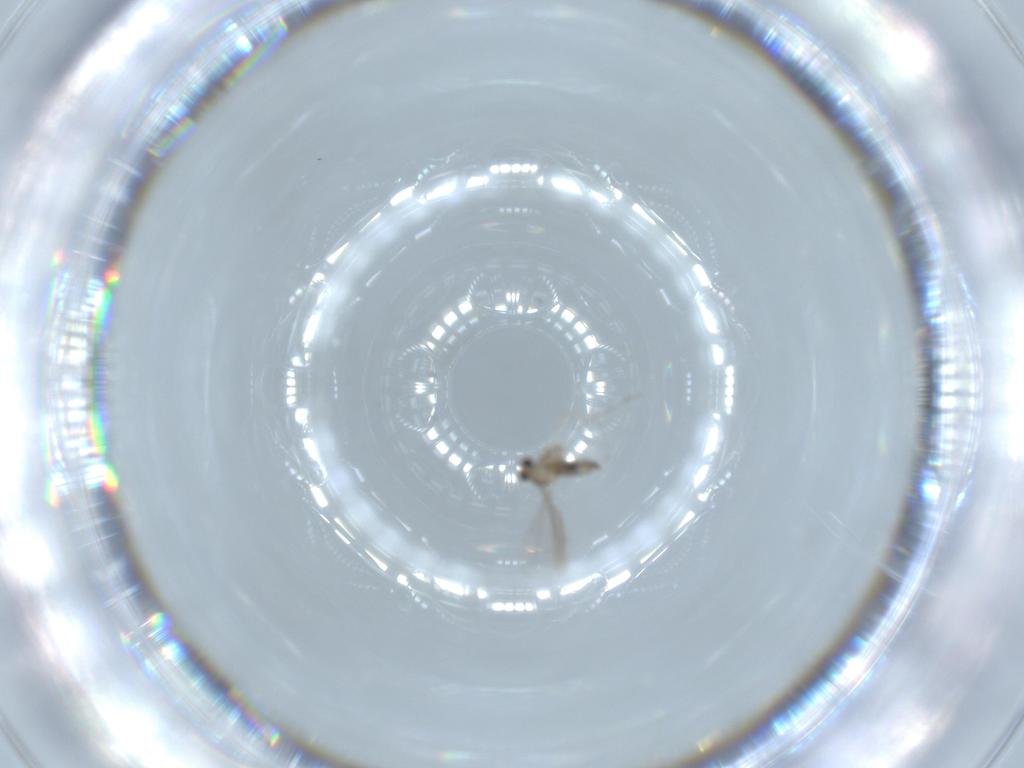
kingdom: Animalia
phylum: Arthropoda
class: Insecta
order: Diptera
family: Cecidomyiidae
